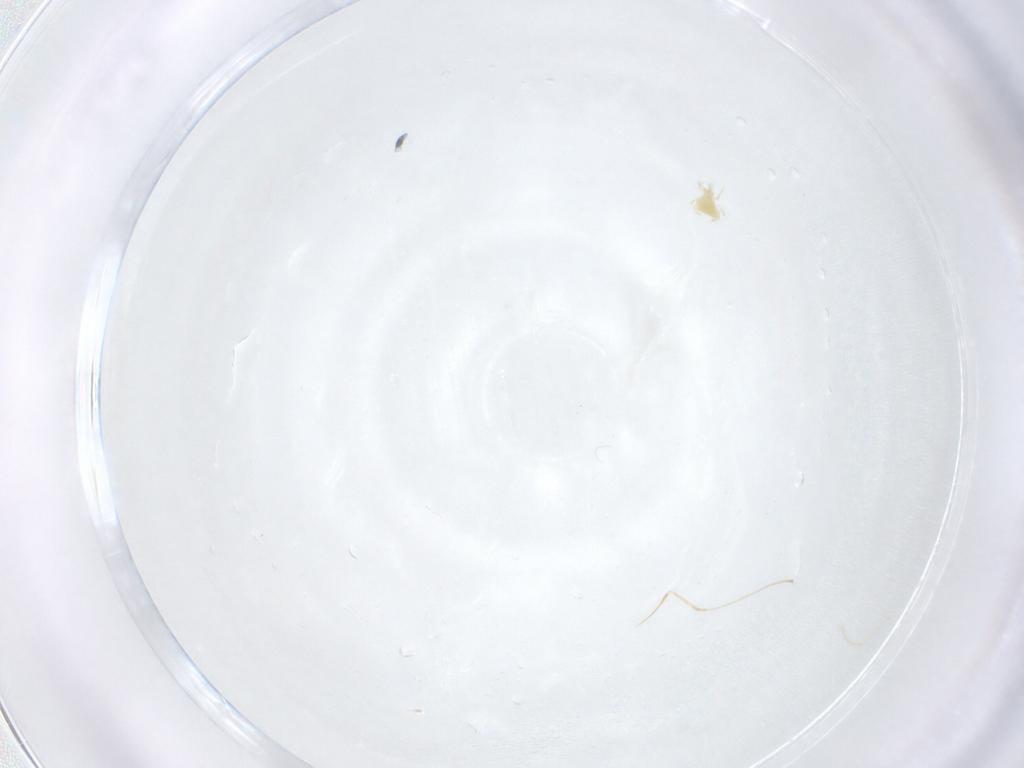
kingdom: Animalia
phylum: Arthropoda
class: Arachnida
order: Mesostigmata
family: Phytoseiidae
